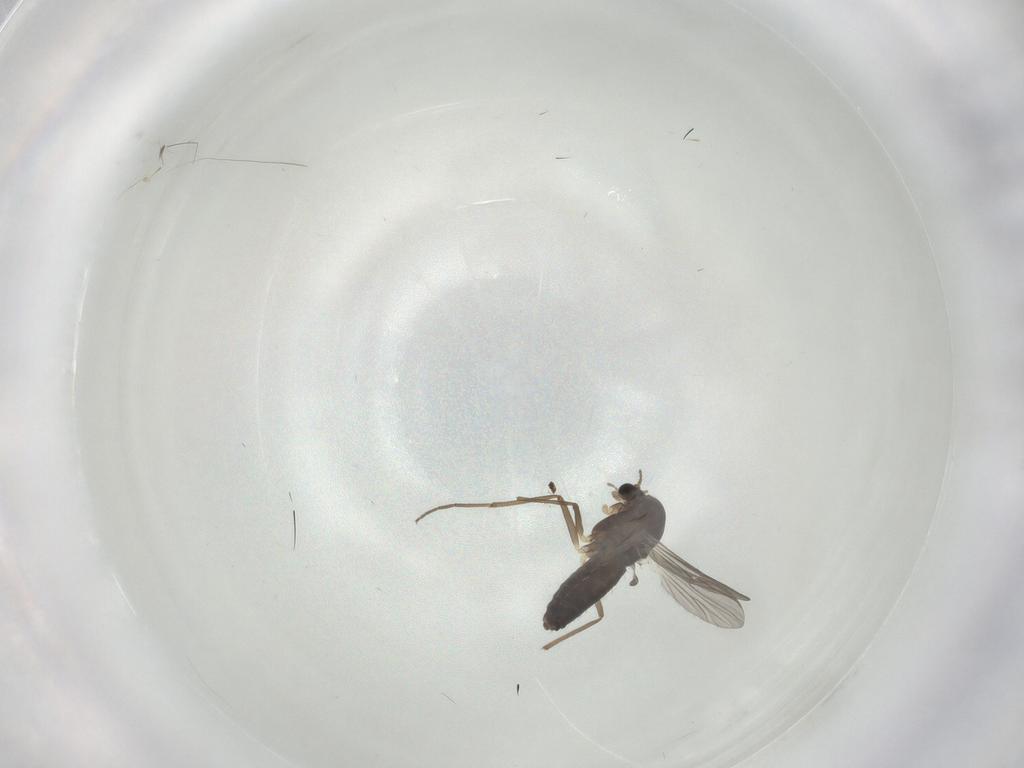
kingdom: Animalia
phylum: Arthropoda
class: Insecta
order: Diptera
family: Chironomidae
